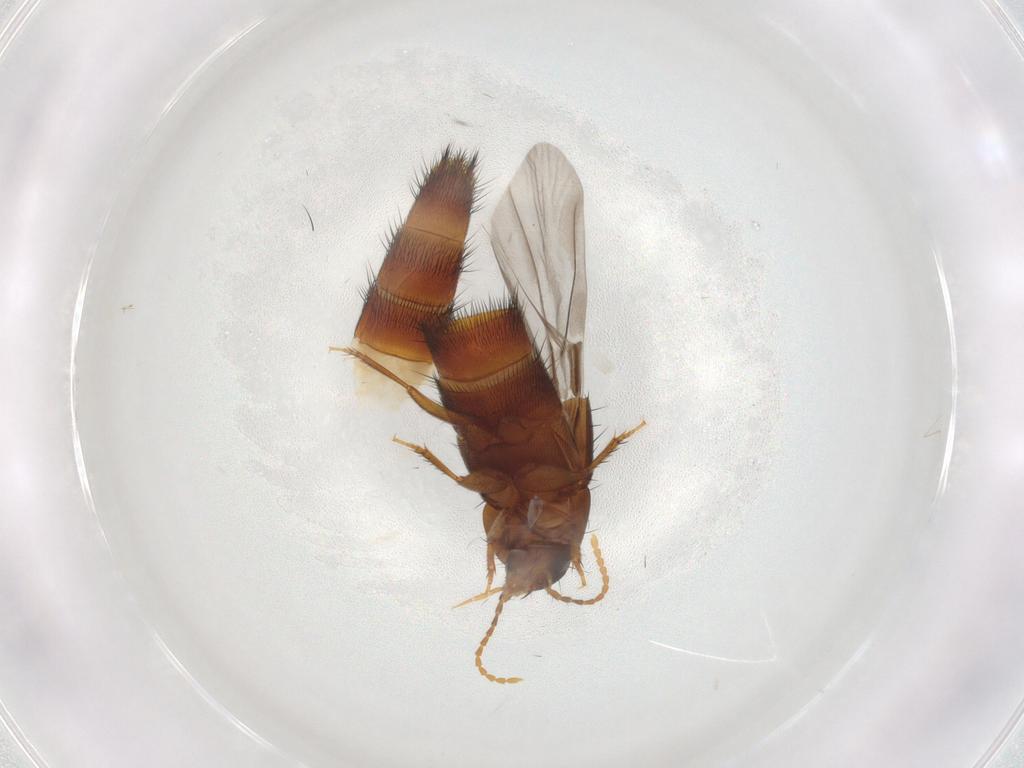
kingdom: Animalia
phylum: Arthropoda
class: Insecta
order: Coleoptera
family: Staphylinidae
